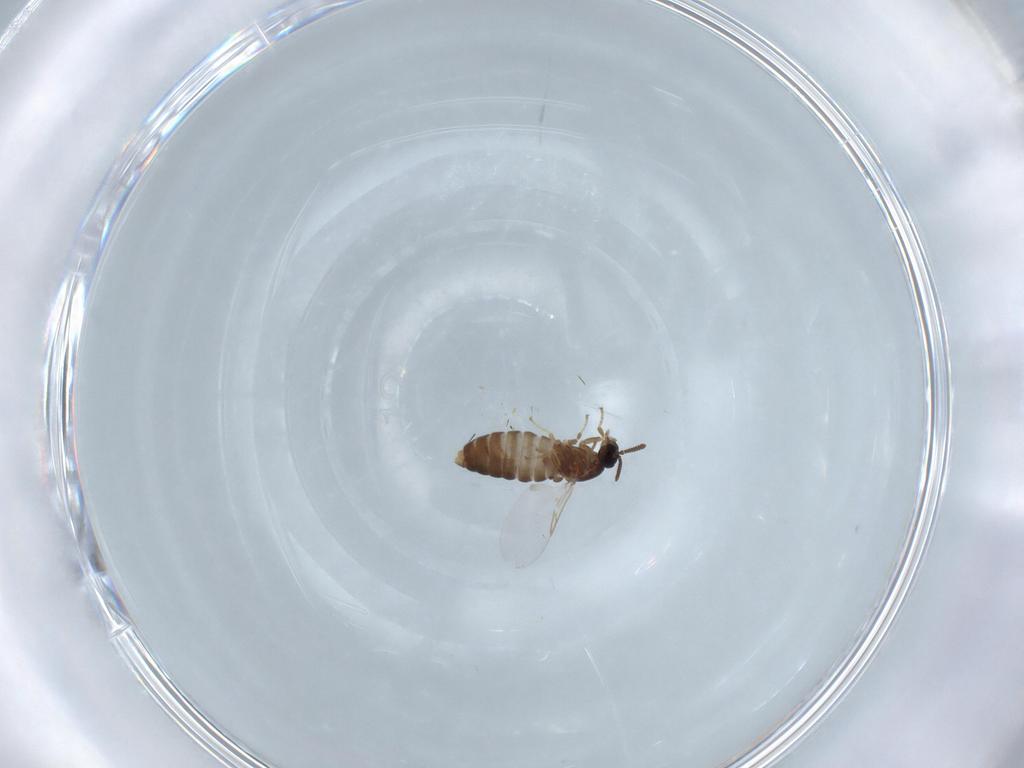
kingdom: Animalia
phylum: Arthropoda
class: Insecta
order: Diptera
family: Scatopsidae
